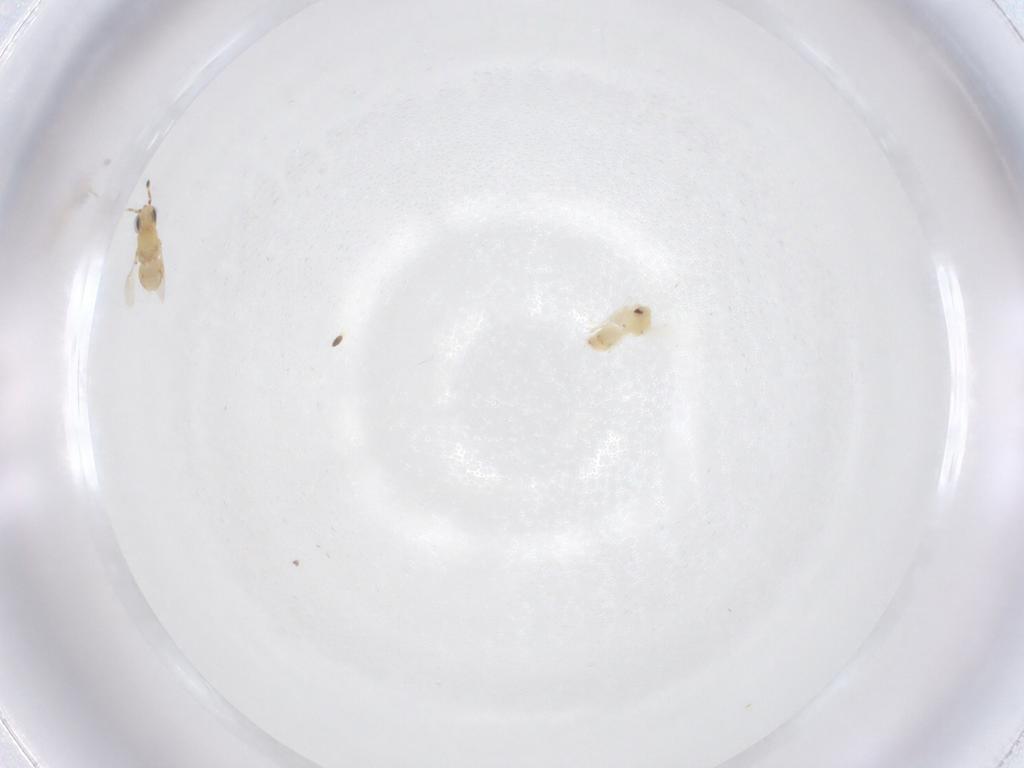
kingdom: Animalia
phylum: Arthropoda
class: Insecta
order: Mantodea
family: Mantidae
